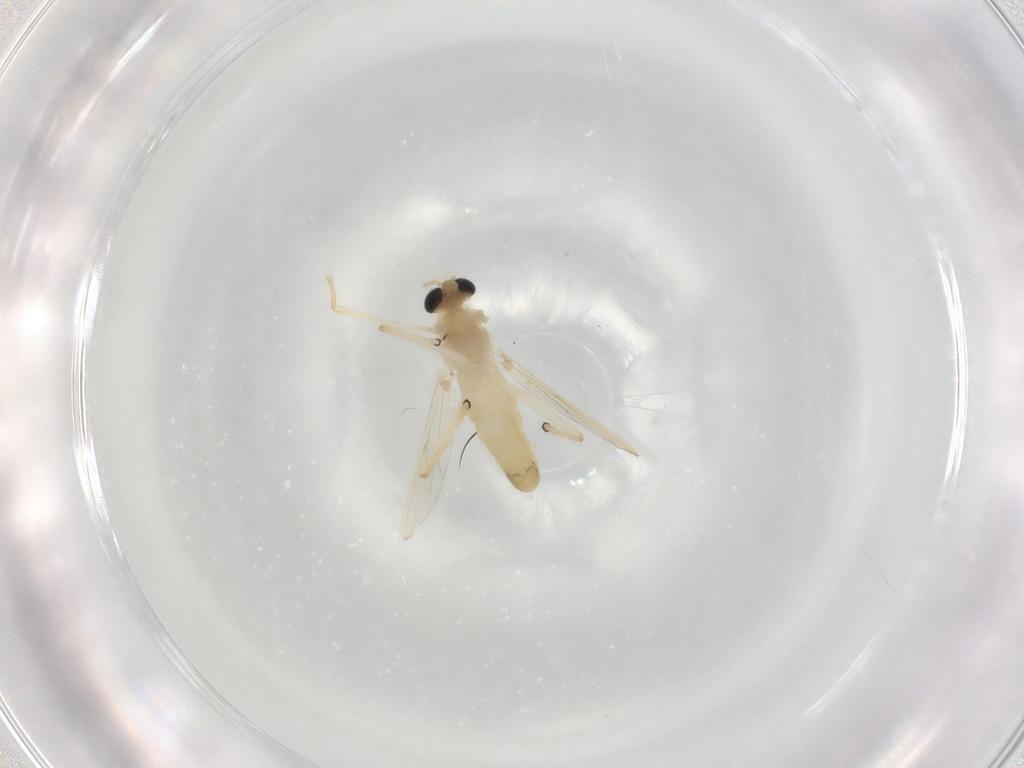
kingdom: Animalia
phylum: Arthropoda
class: Insecta
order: Diptera
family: Chironomidae
